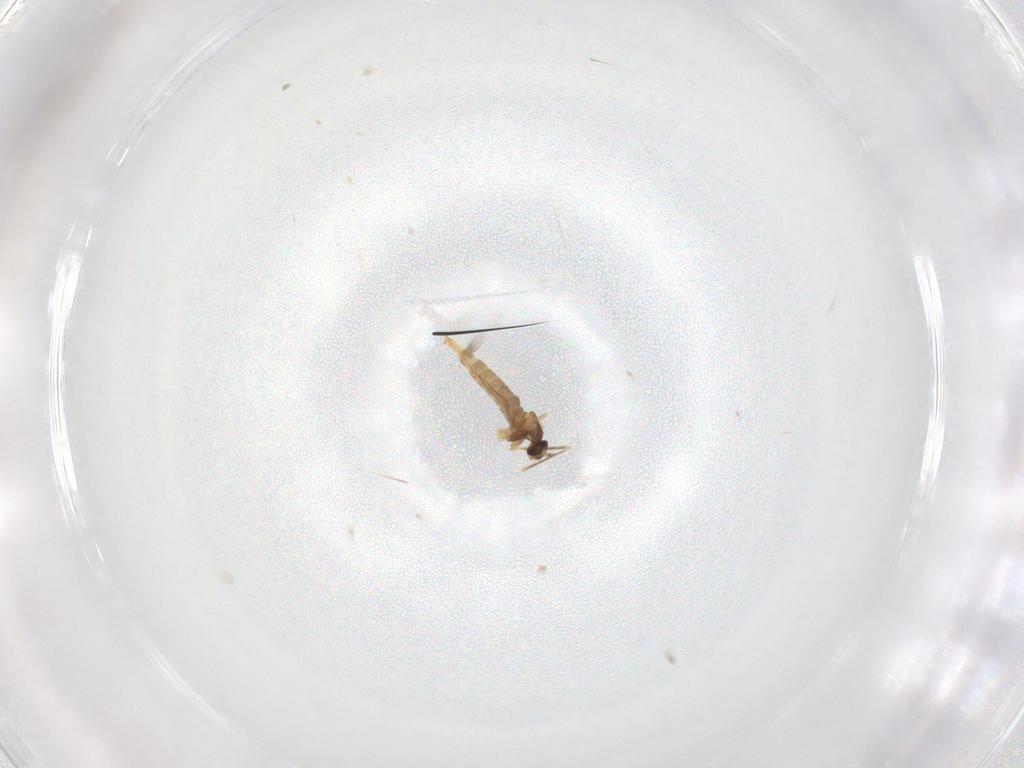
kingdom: Animalia
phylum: Arthropoda
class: Insecta
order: Diptera
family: Cecidomyiidae
